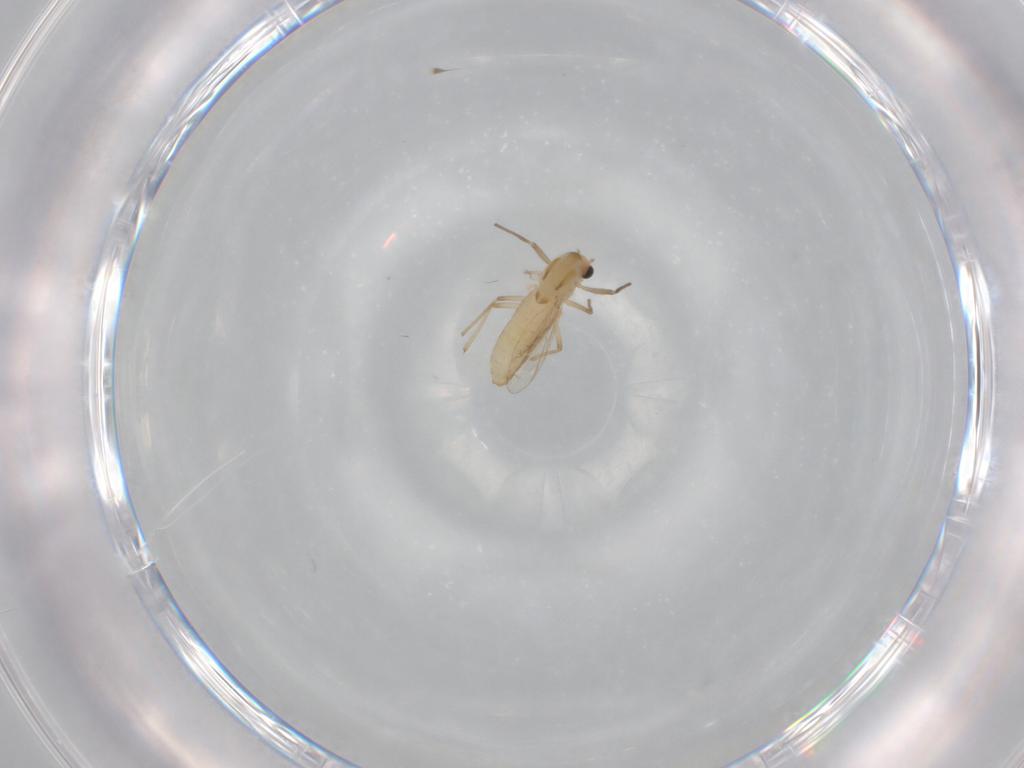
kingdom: Animalia
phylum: Arthropoda
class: Insecta
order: Diptera
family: Chironomidae
